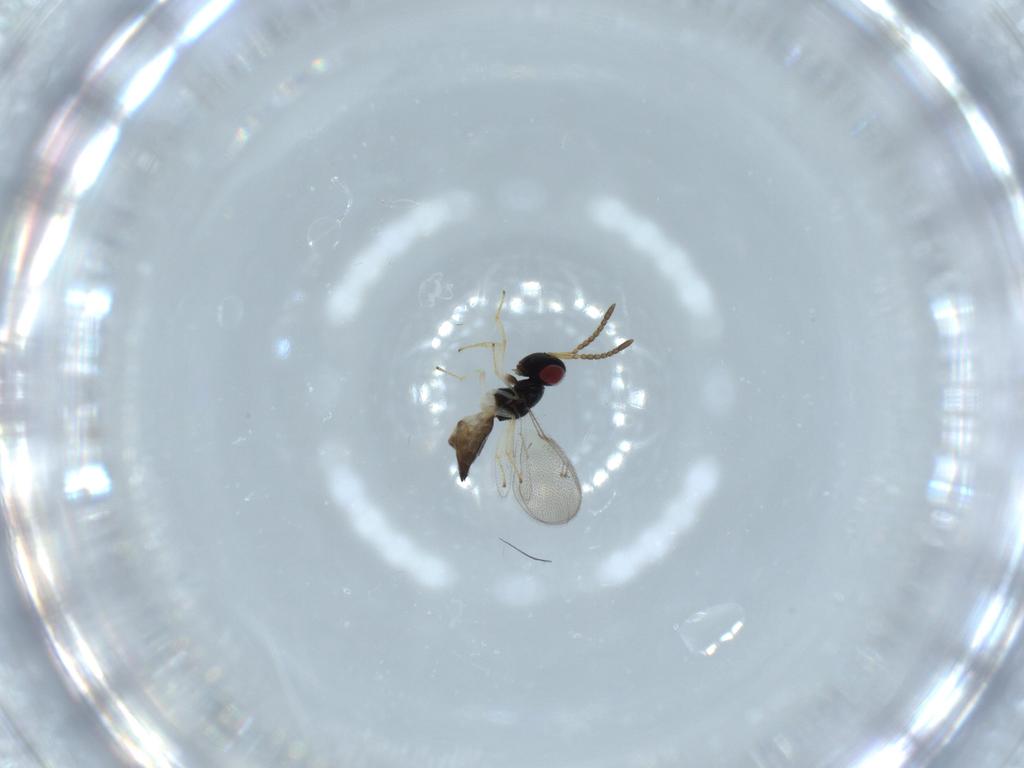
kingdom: Animalia
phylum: Arthropoda
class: Insecta
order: Hymenoptera
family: Pteromalidae
